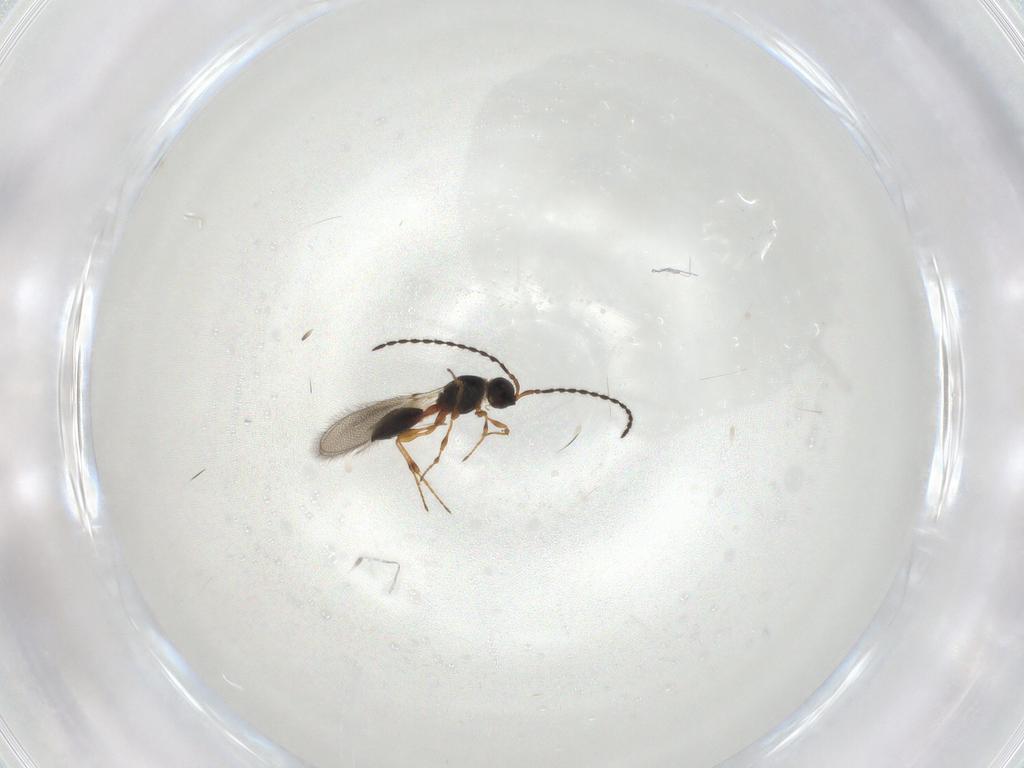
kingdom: Animalia
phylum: Arthropoda
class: Insecta
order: Hymenoptera
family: Diapriidae
